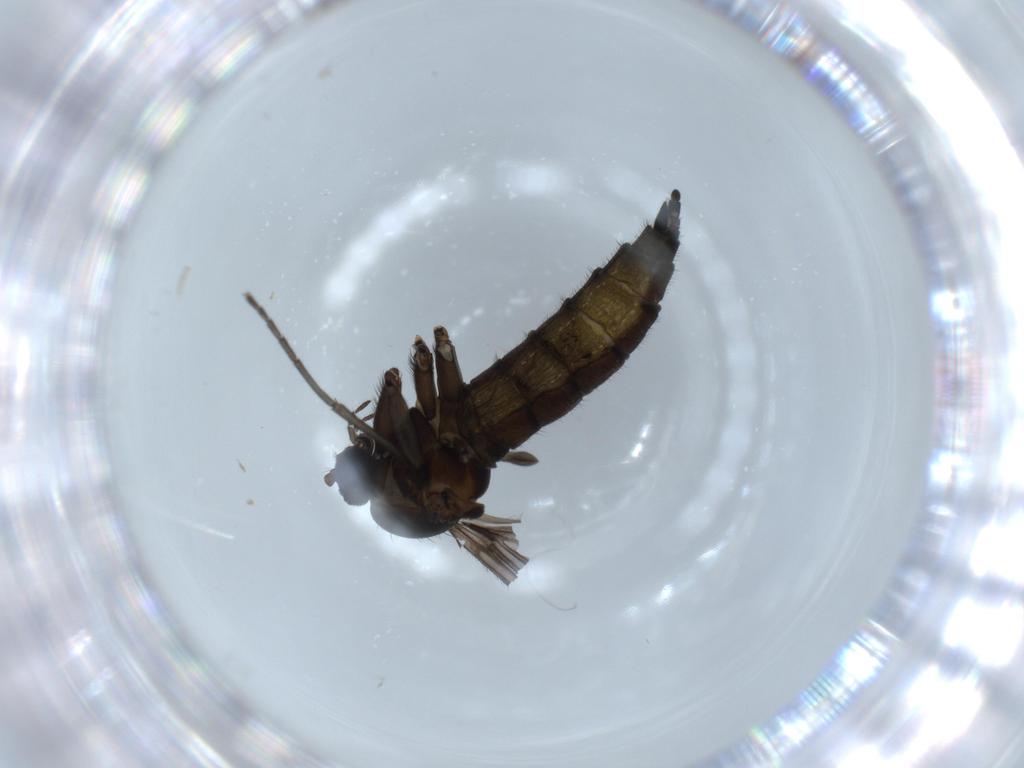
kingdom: Animalia
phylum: Arthropoda
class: Insecta
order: Diptera
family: Sciaridae
